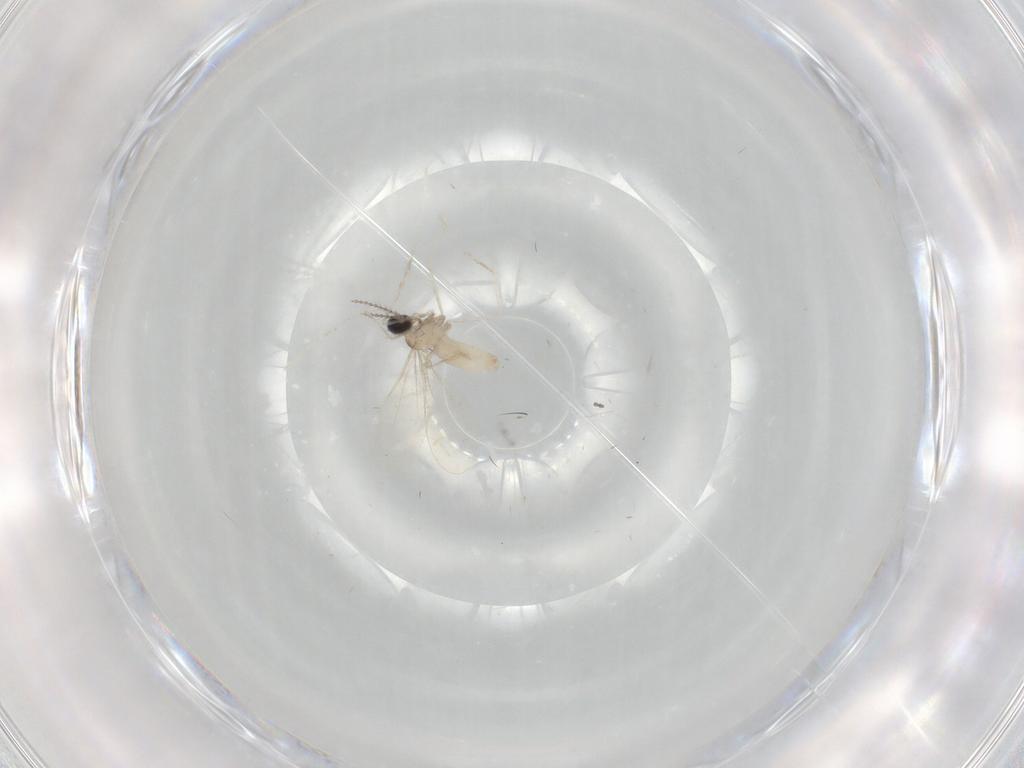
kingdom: Animalia
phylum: Arthropoda
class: Insecta
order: Diptera
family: Cecidomyiidae
